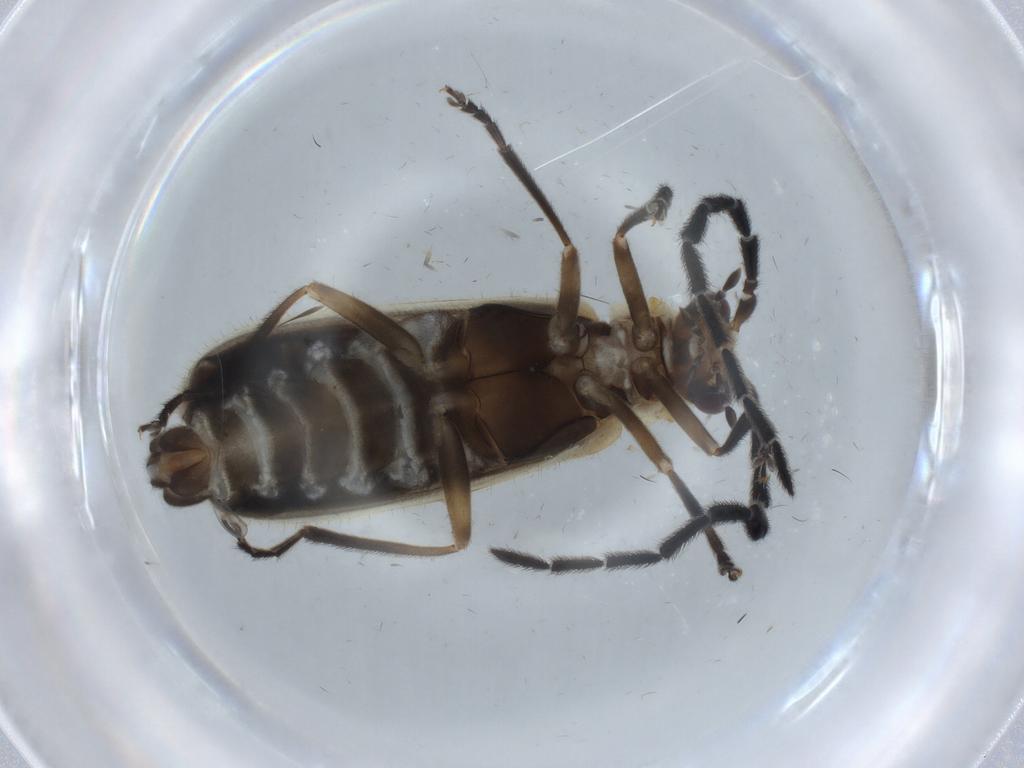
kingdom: Animalia
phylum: Arthropoda
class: Insecta
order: Coleoptera
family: Cantharidae
